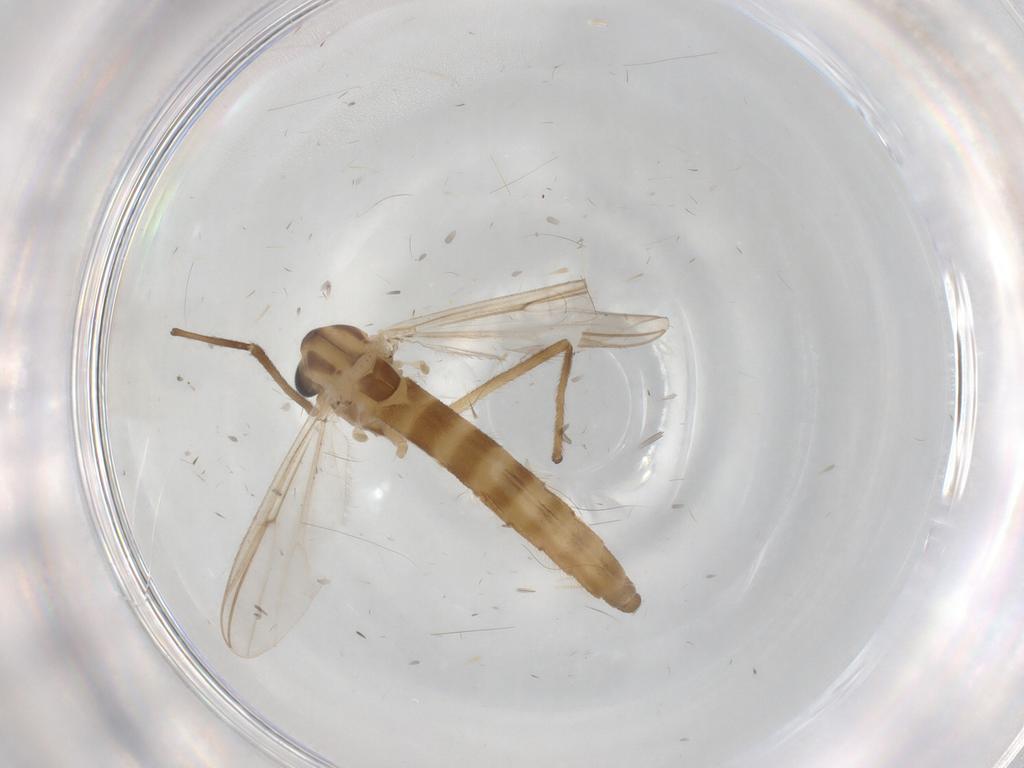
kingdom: Animalia
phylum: Arthropoda
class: Insecta
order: Diptera
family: Chironomidae
